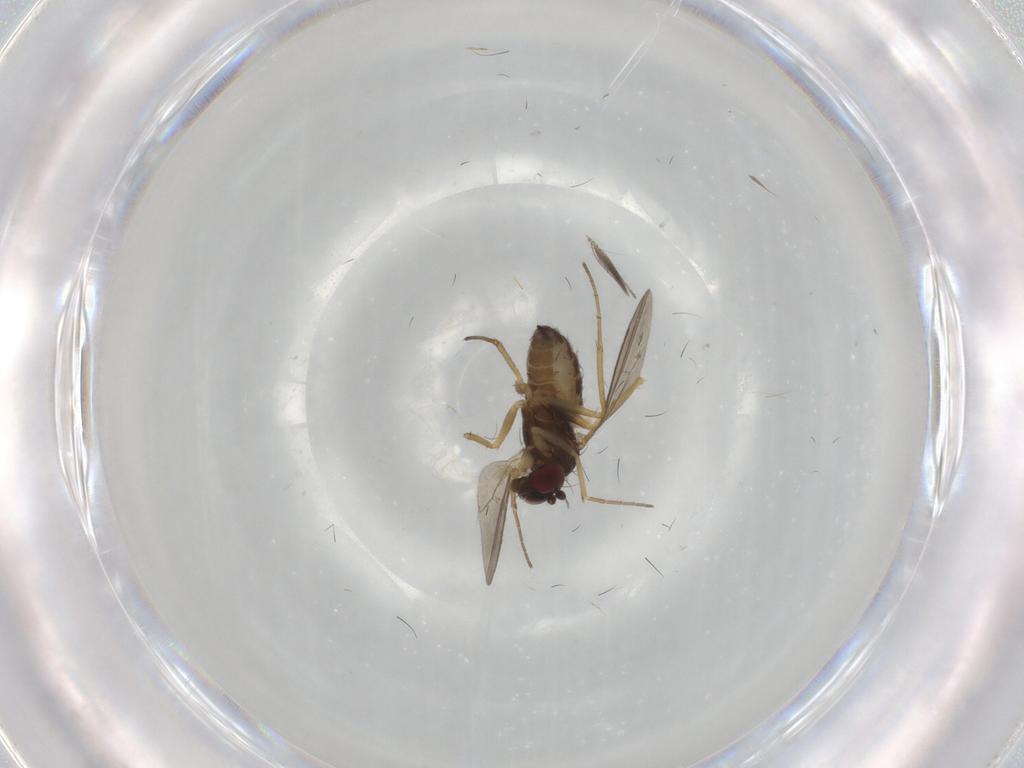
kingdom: Animalia
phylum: Arthropoda
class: Insecta
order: Diptera
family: Dolichopodidae
